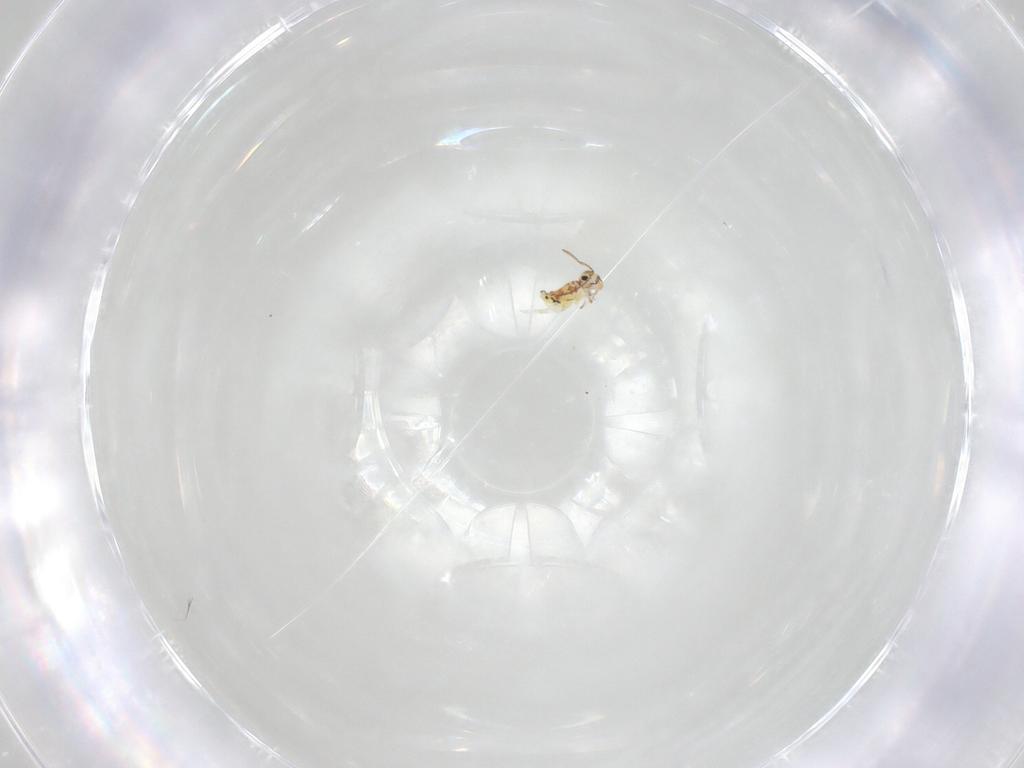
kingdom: Animalia
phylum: Arthropoda
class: Collembola
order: Symphypleona
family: Bourletiellidae
